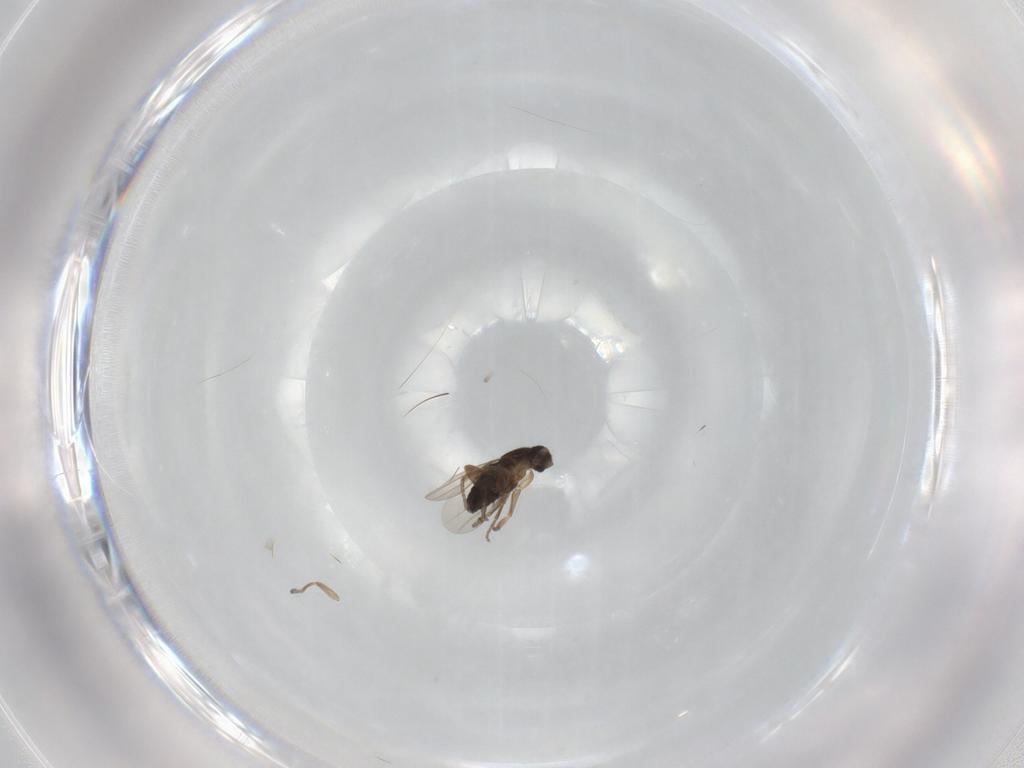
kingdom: Animalia
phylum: Arthropoda
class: Insecta
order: Diptera
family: Phoridae
